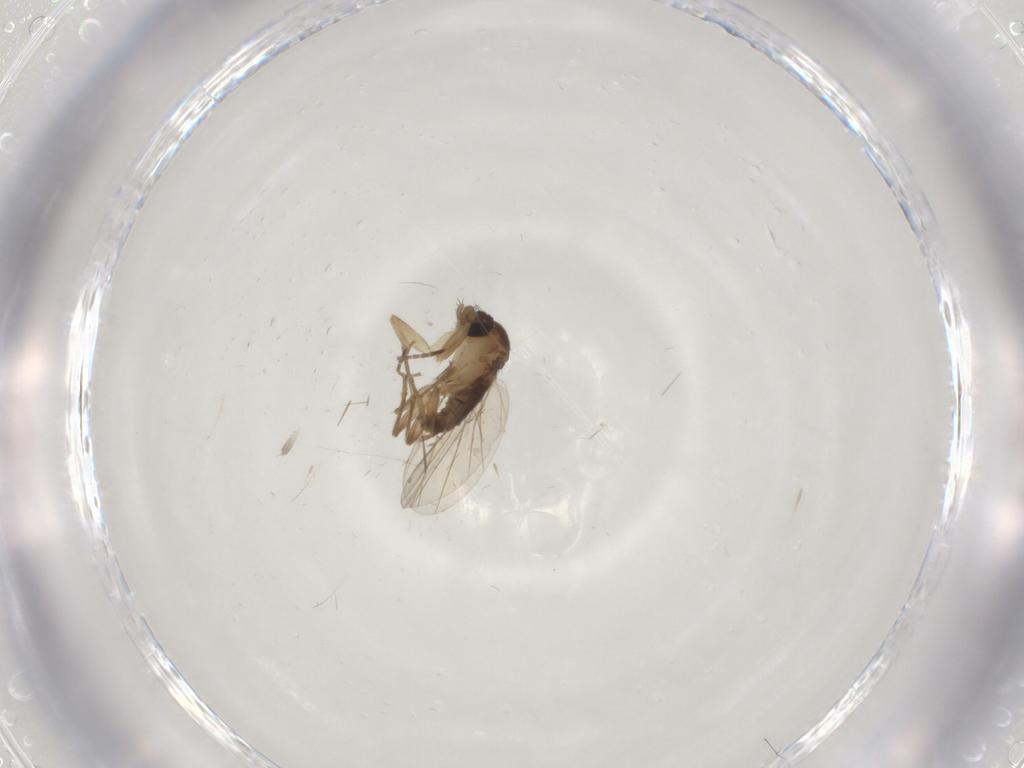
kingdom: Animalia
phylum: Arthropoda
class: Insecta
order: Diptera
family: Phoridae
